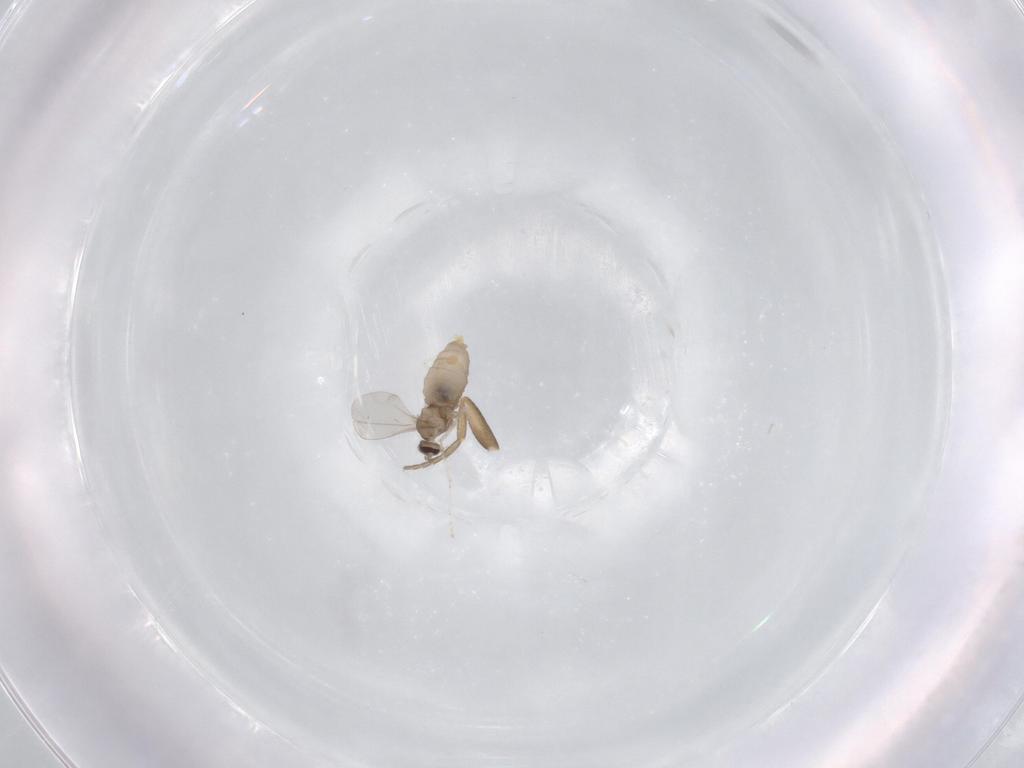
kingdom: Animalia
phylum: Arthropoda
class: Insecta
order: Diptera
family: Cecidomyiidae
